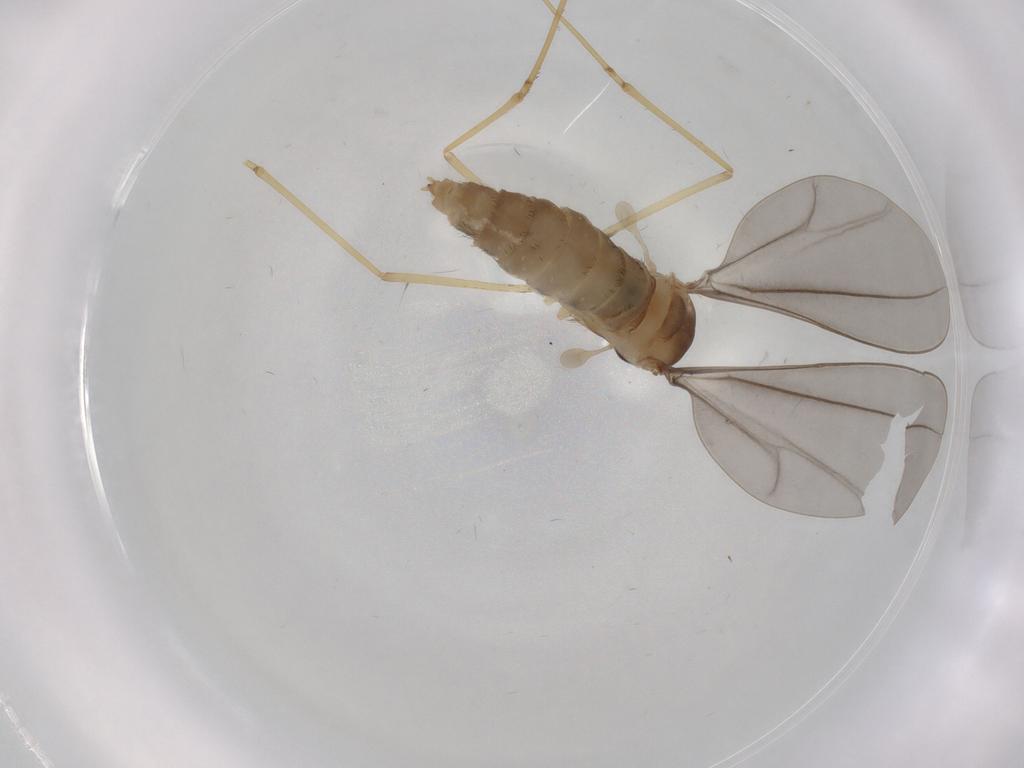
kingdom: Animalia
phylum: Arthropoda
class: Insecta
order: Diptera
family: Cecidomyiidae
